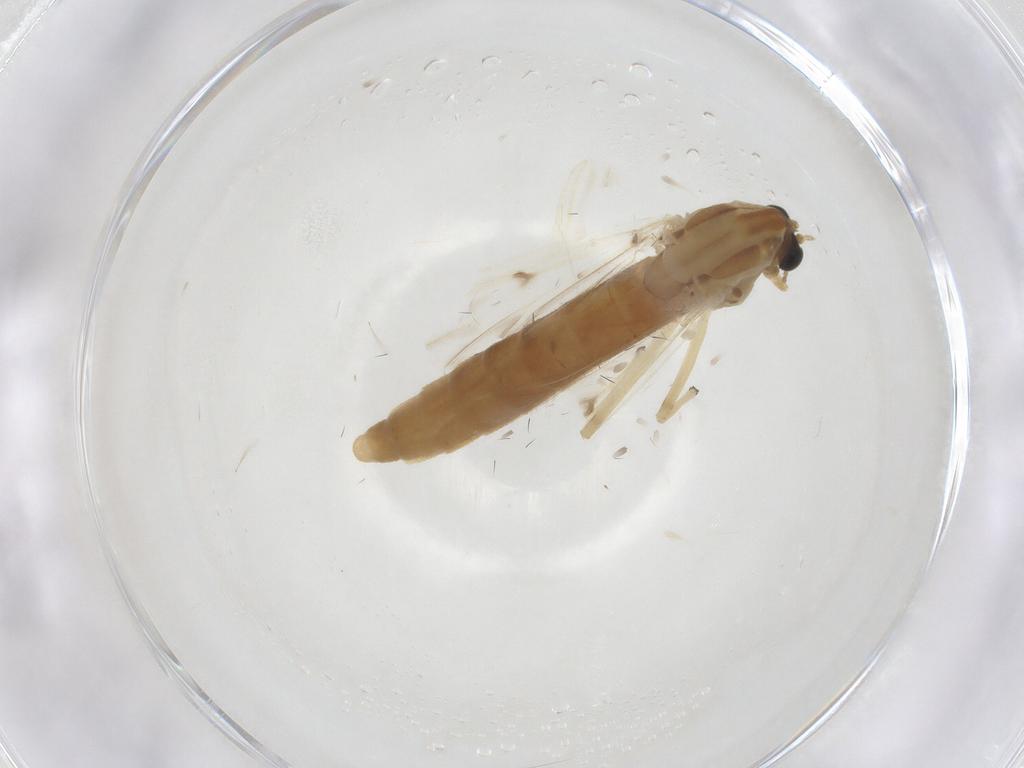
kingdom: Animalia
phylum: Arthropoda
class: Insecta
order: Diptera
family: Chironomidae
